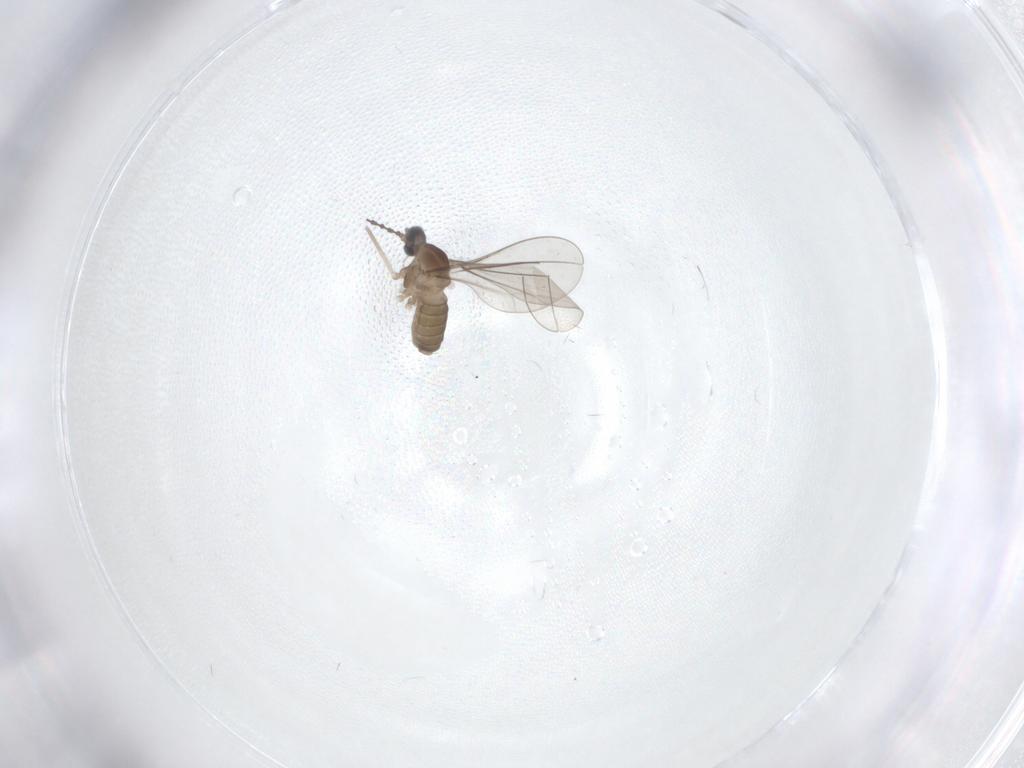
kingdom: Animalia
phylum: Arthropoda
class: Insecta
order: Diptera
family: Cecidomyiidae
